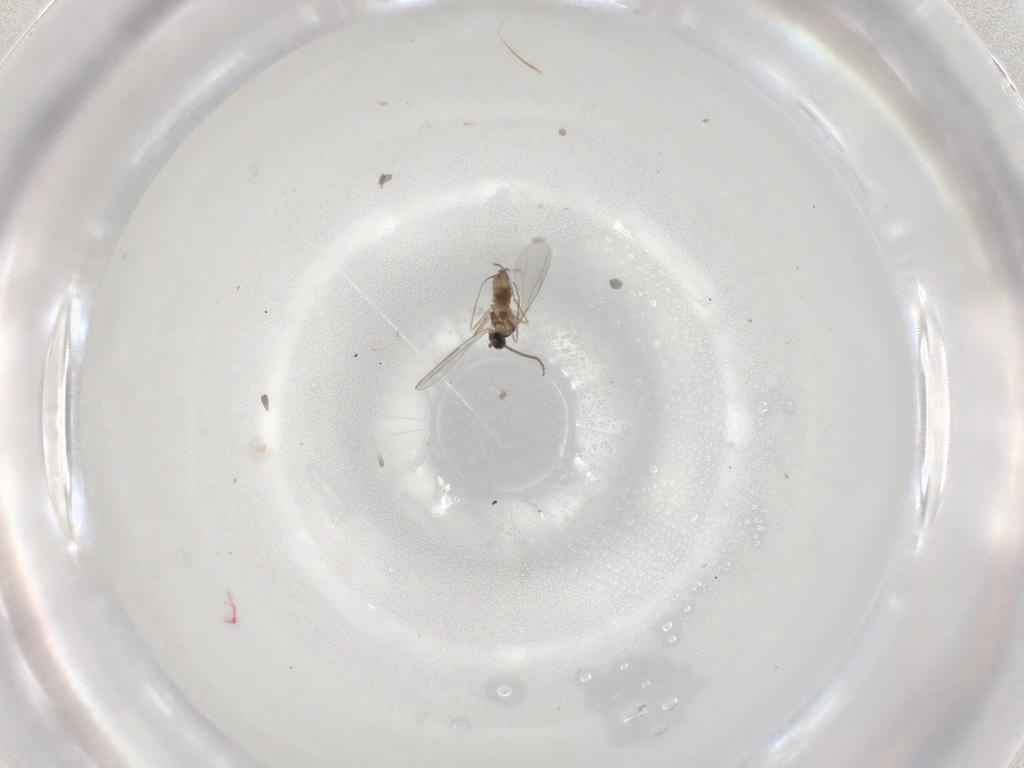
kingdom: Animalia
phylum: Arthropoda
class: Insecta
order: Diptera
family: Cecidomyiidae
